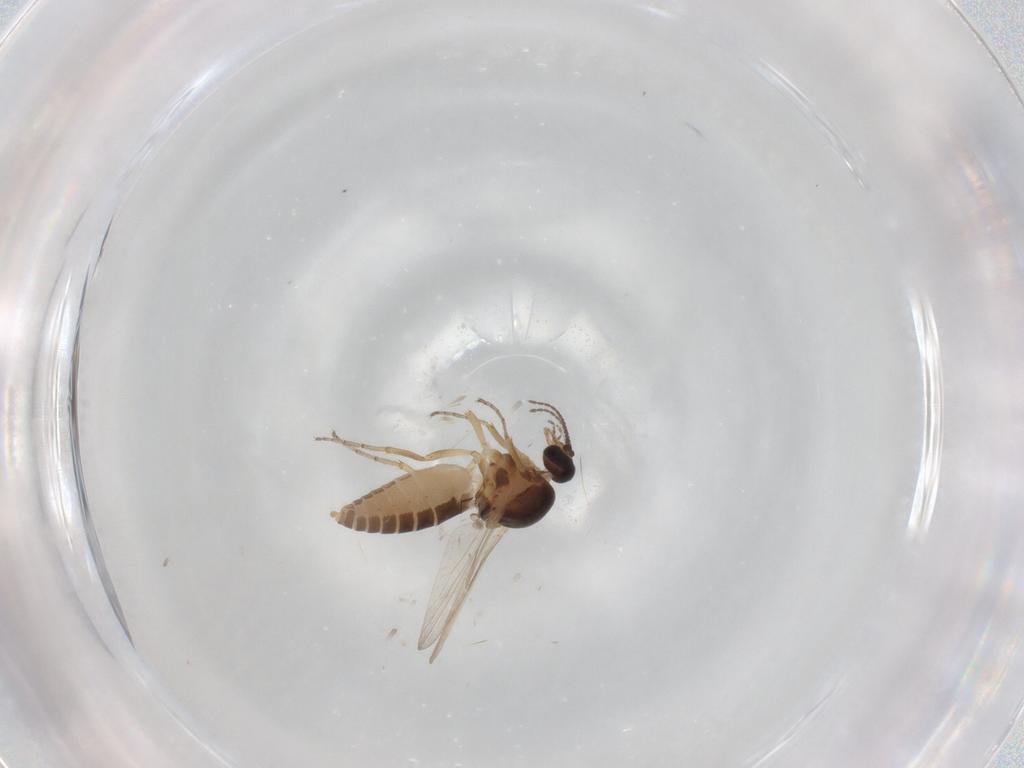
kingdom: Animalia
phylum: Arthropoda
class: Insecta
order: Diptera
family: Ceratopogonidae
